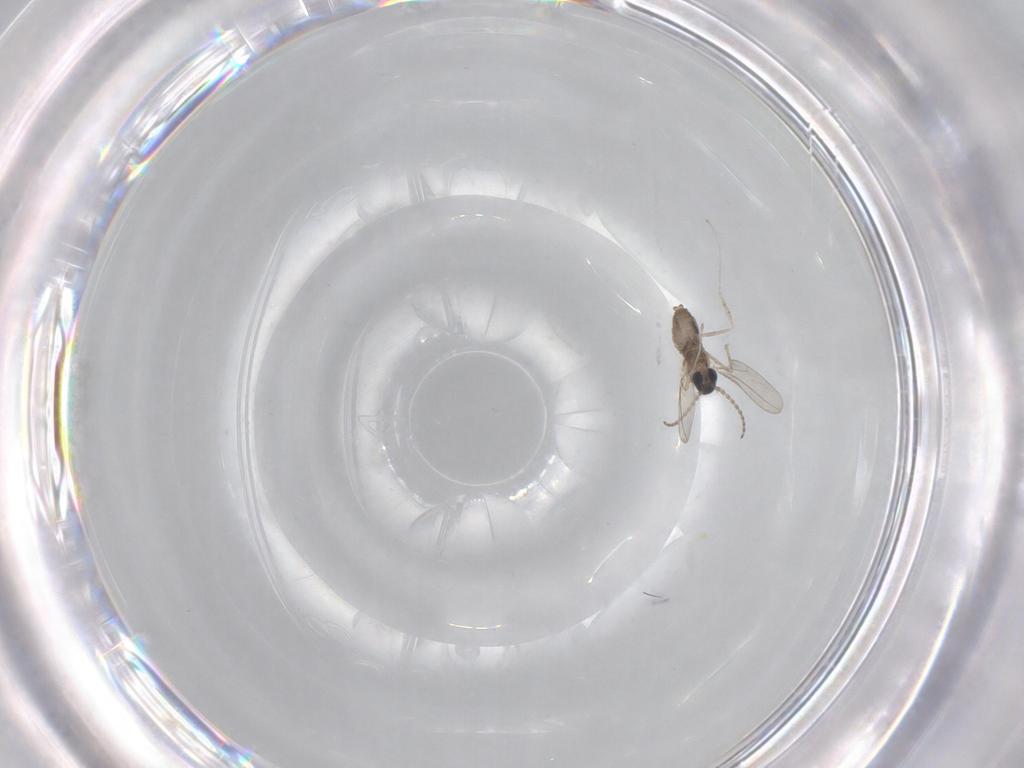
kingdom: Animalia
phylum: Arthropoda
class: Insecta
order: Diptera
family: Chironomidae
